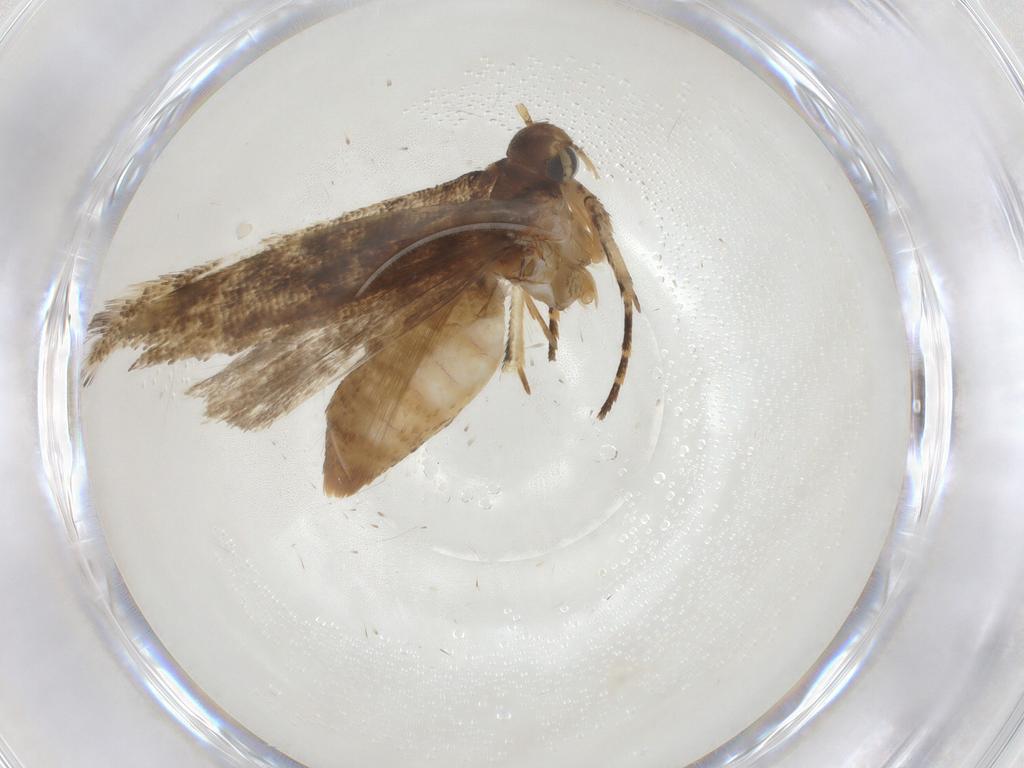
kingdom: Animalia
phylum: Arthropoda
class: Insecta
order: Lepidoptera
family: Gelechiidae
